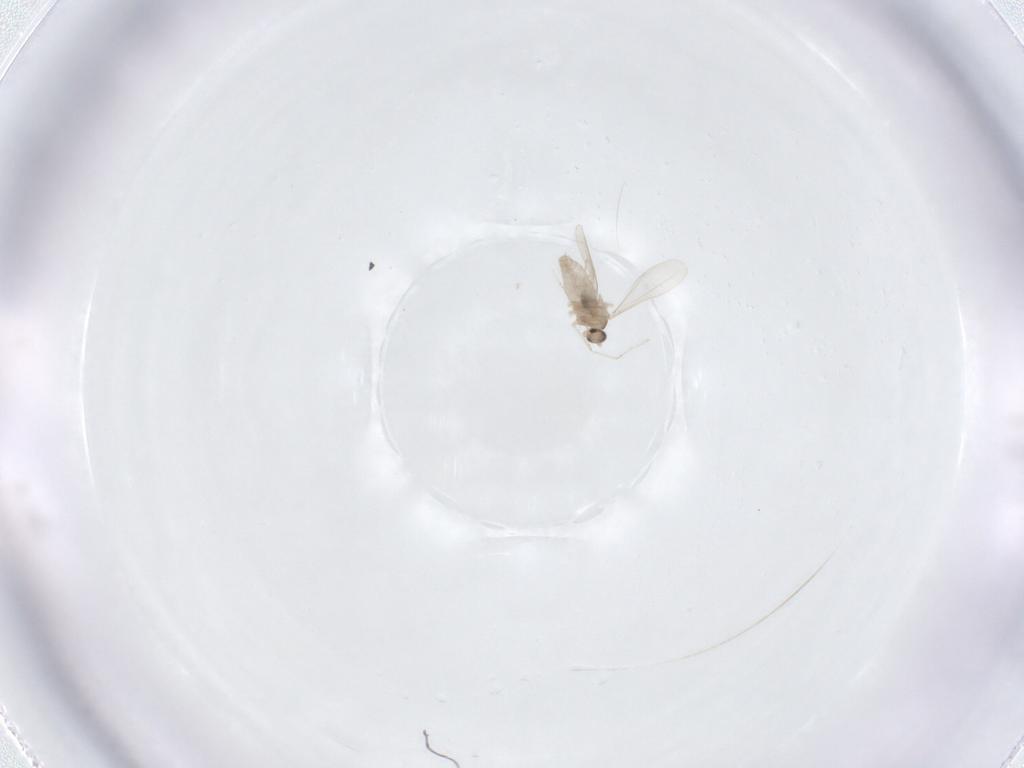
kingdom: Animalia
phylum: Arthropoda
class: Insecta
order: Diptera
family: Cecidomyiidae
